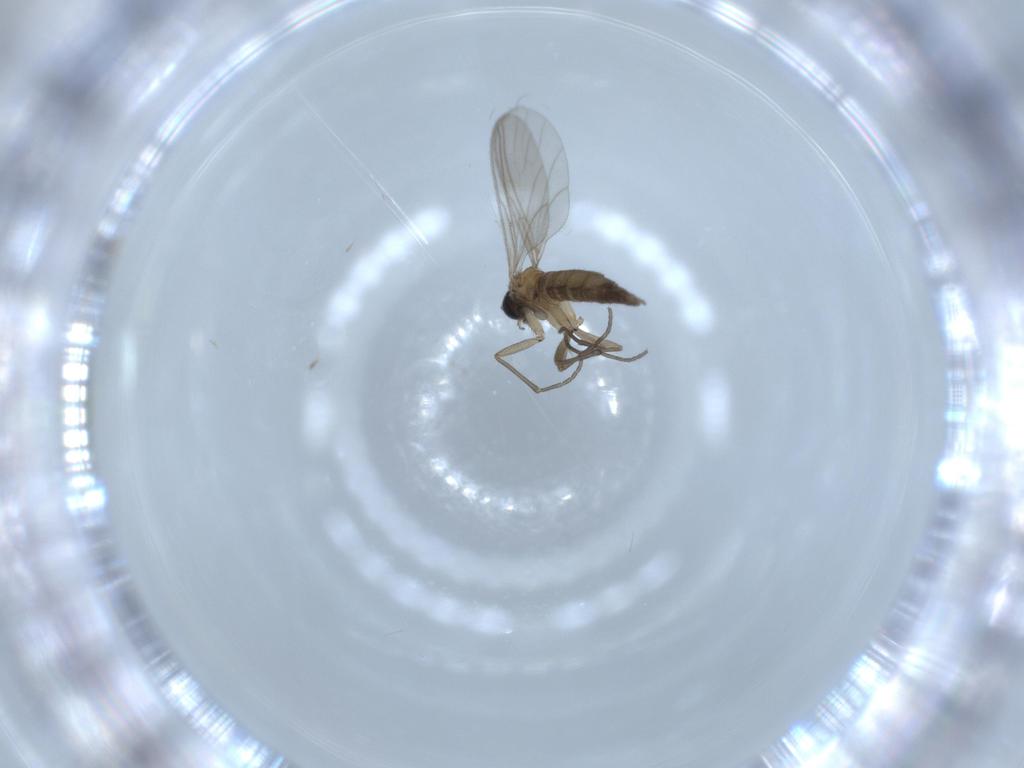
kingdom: Animalia
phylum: Arthropoda
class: Insecta
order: Diptera
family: Sciaridae
